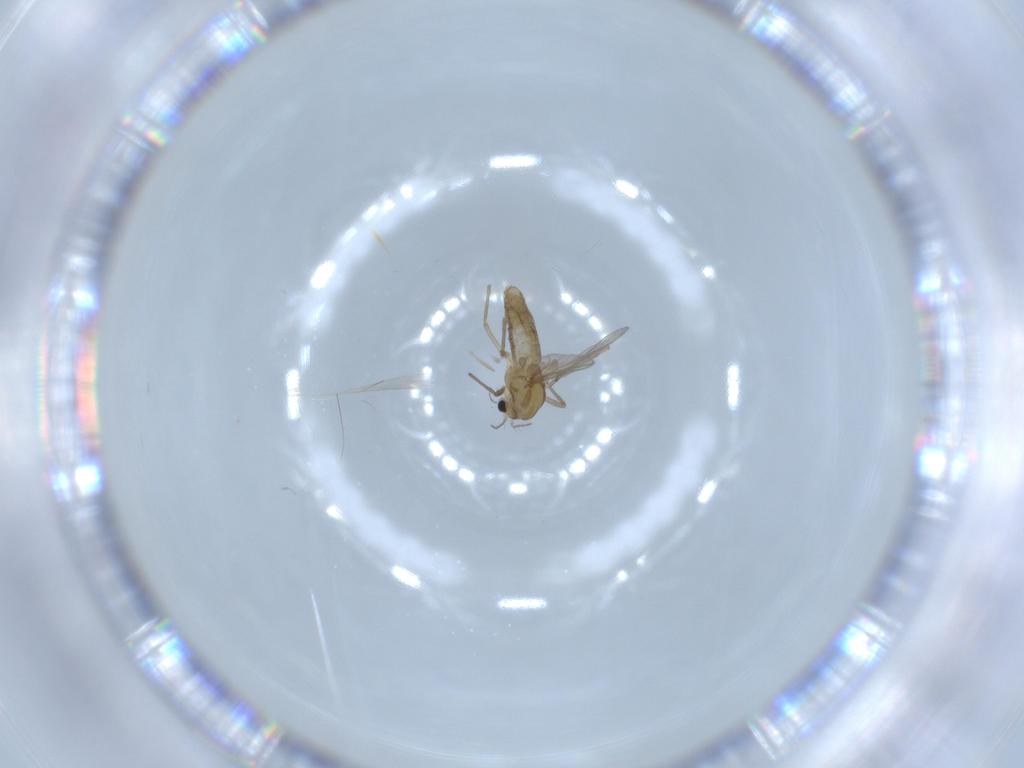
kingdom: Animalia
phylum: Arthropoda
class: Insecta
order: Diptera
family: Chironomidae
